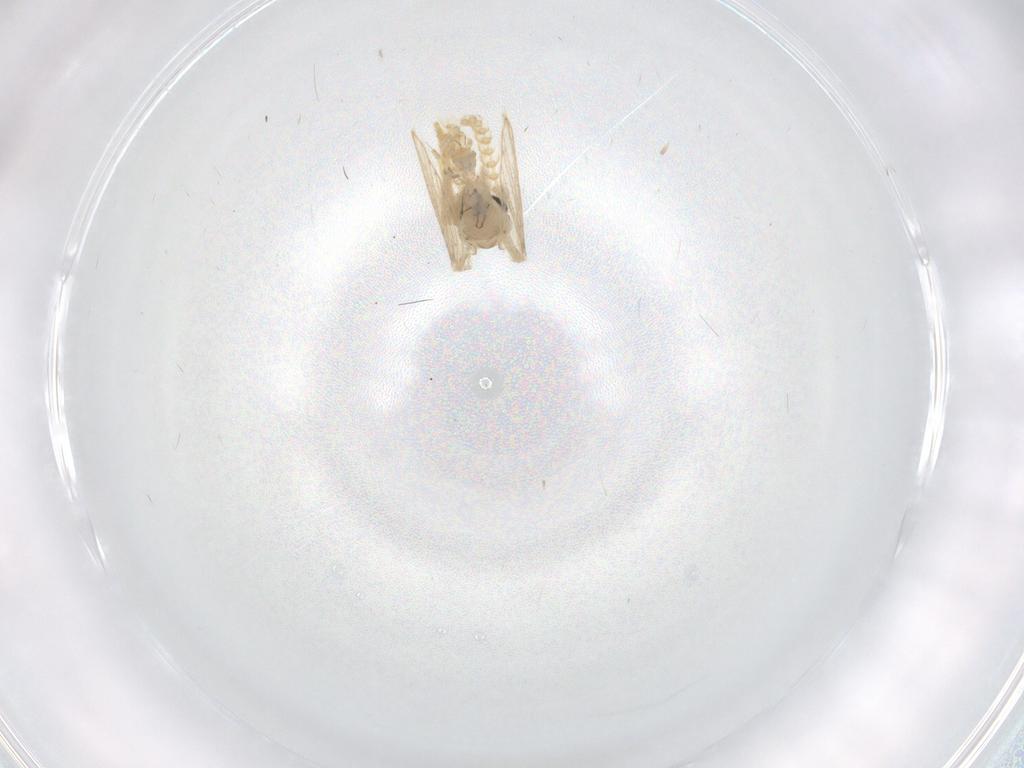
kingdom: Animalia
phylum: Arthropoda
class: Insecta
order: Diptera
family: Psychodidae
